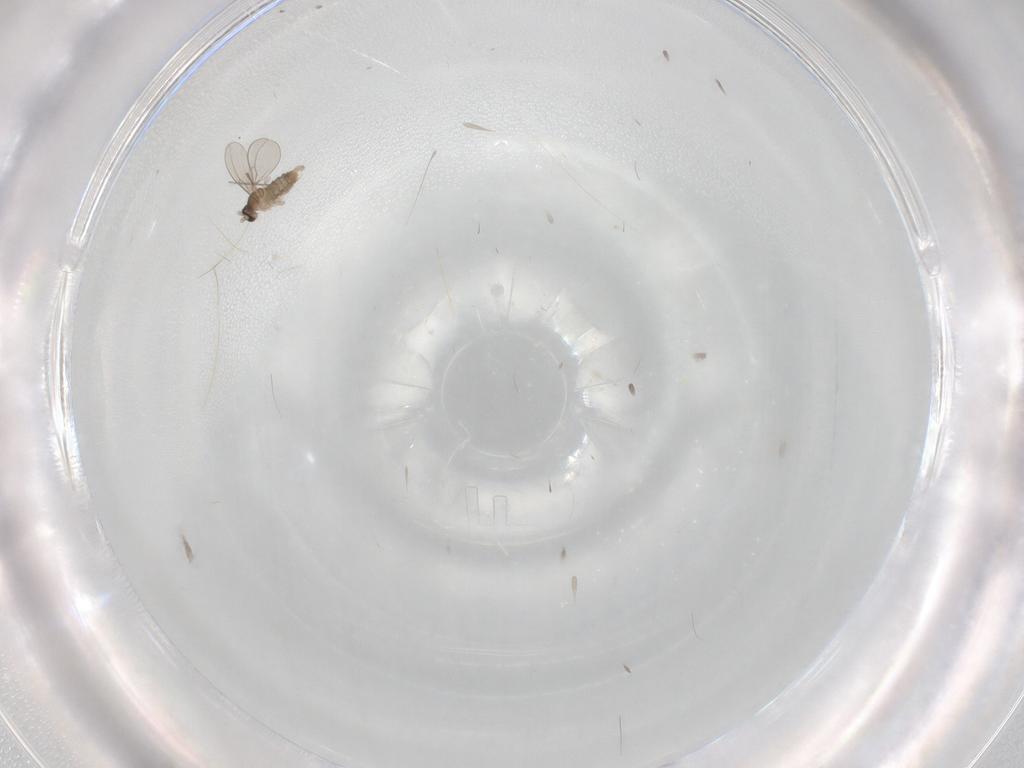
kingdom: Animalia
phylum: Arthropoda
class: Insecta
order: Diptera
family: Chironomidae
